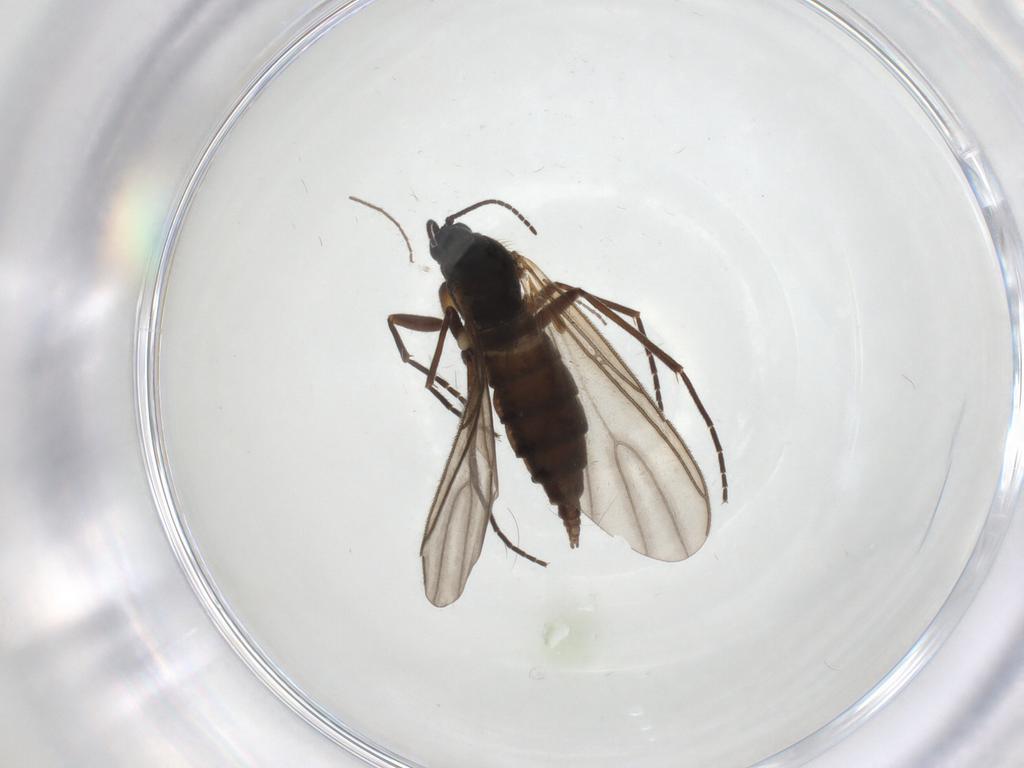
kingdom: Animalia
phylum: Arthropoda
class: Insecta
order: Diptera
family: Sciaridae
